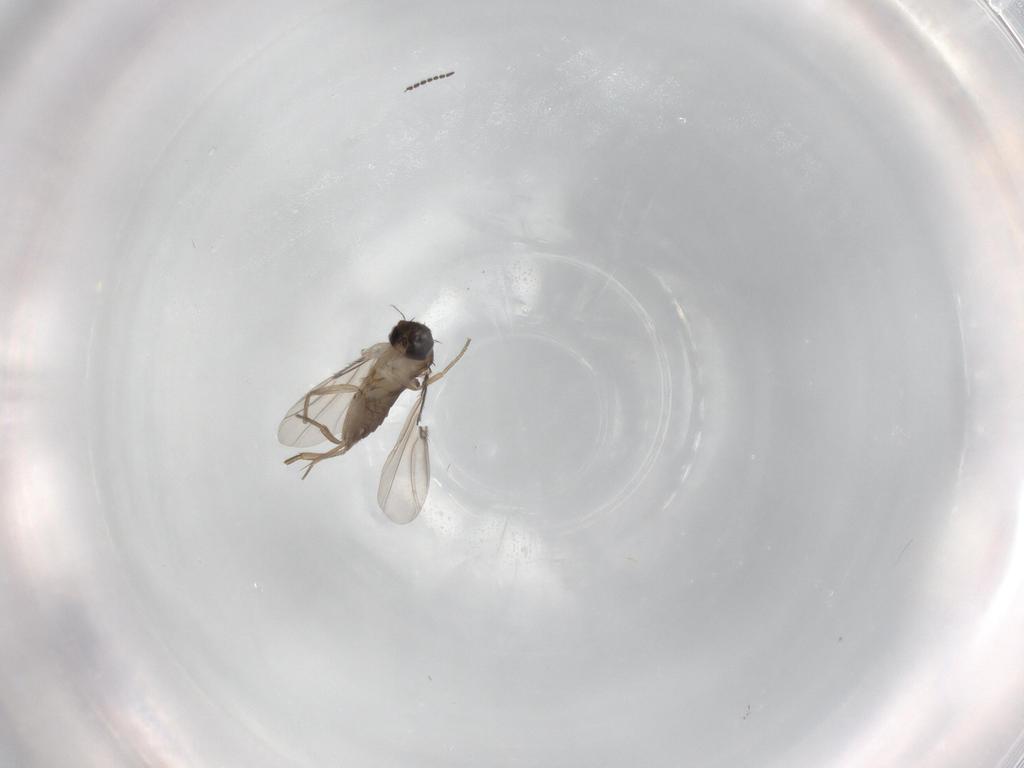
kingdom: Animalia
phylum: Arthropoda
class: Insecta
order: Diptera
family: Phoridae
